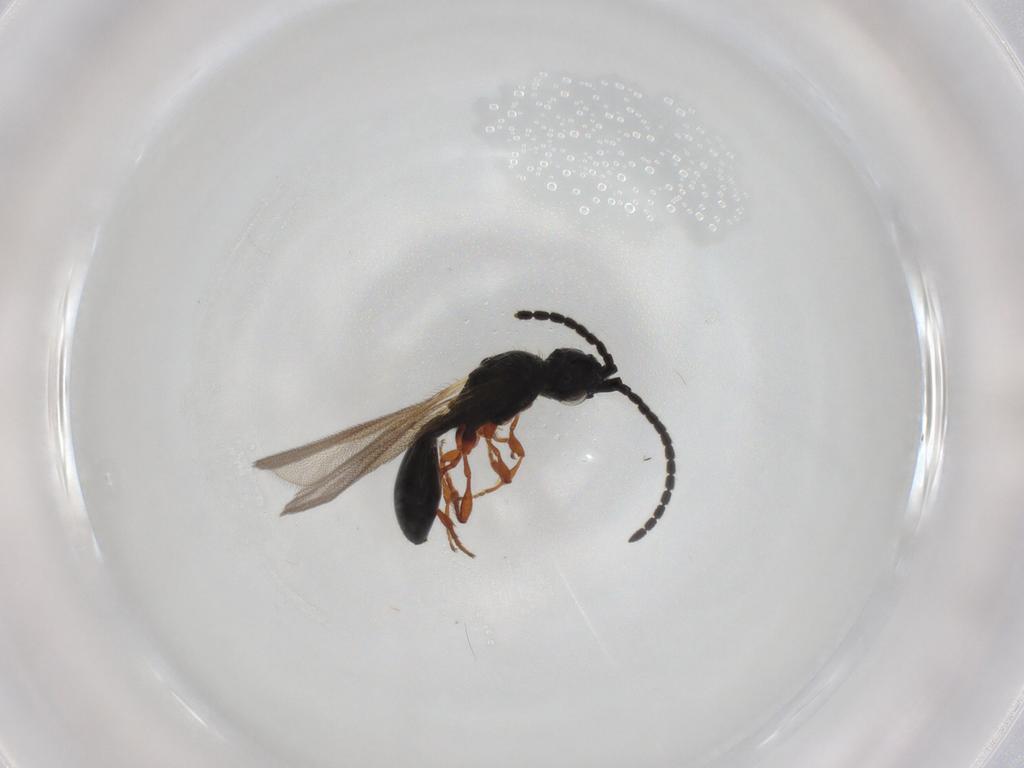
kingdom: Animalia
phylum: Arthropoda
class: Insecta
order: Hymenoptera
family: Diapriidae
